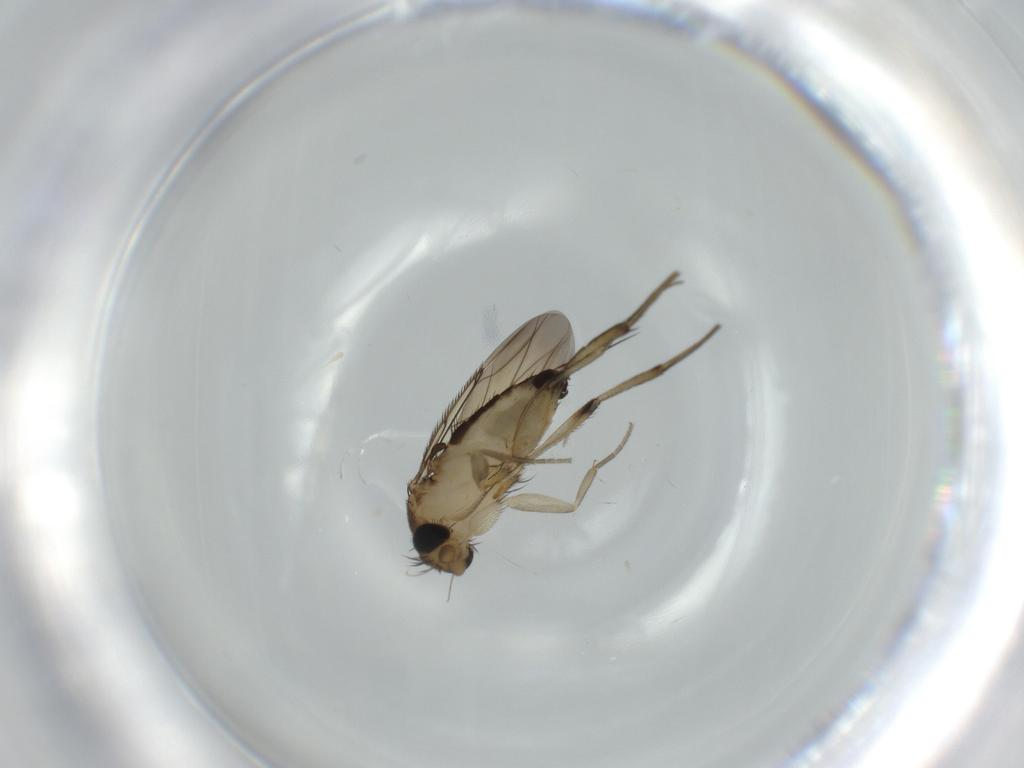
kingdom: Animalia
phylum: Arthropoda
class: Insecta
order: Diptera
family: Phoridae
